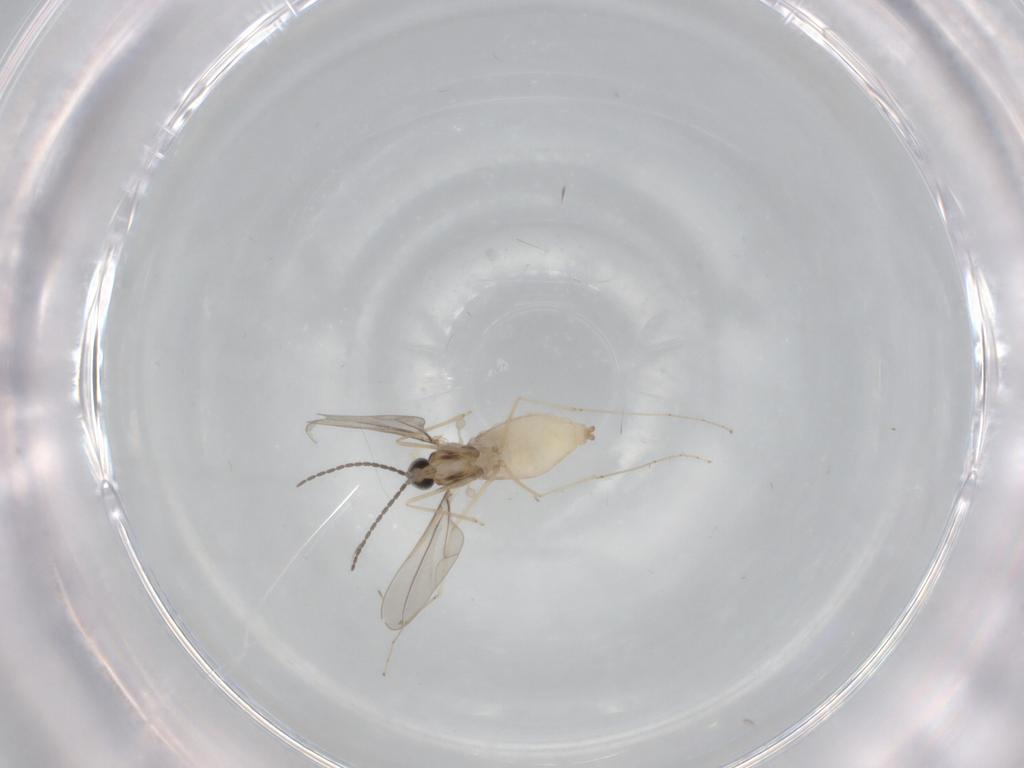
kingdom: Animalia
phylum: Arthropoda
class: Insecta
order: Diptera
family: Cecidomyiidae
